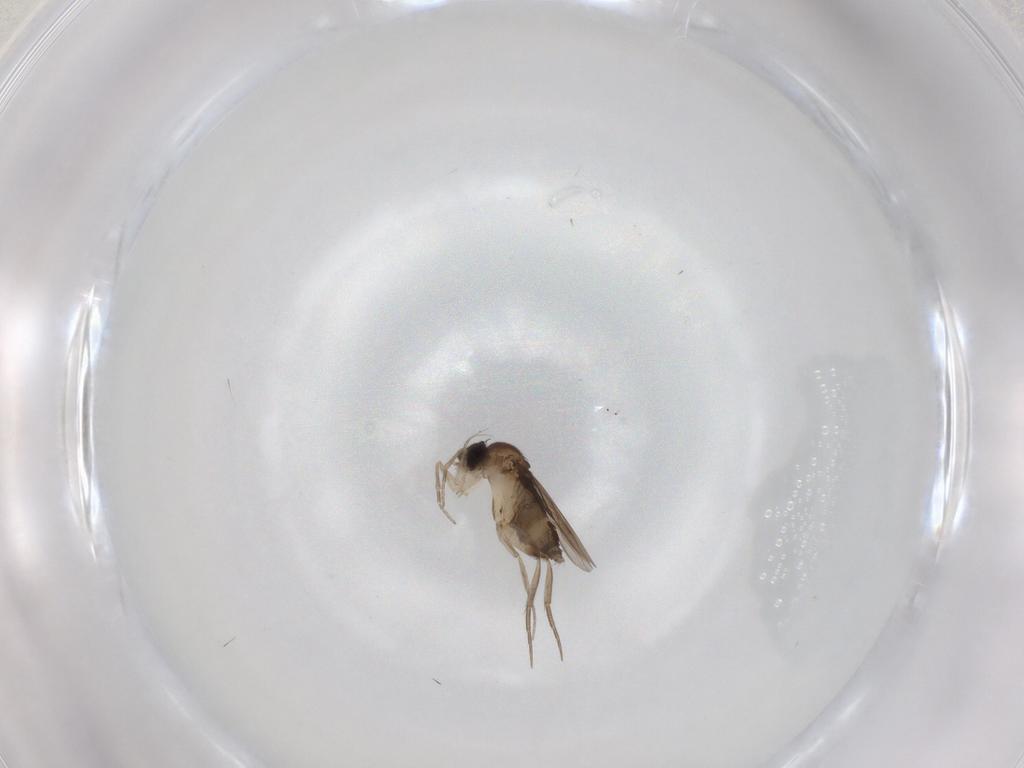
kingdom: Animalia
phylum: Arthropoda
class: Insecta
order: Diptera
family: Phoridae
